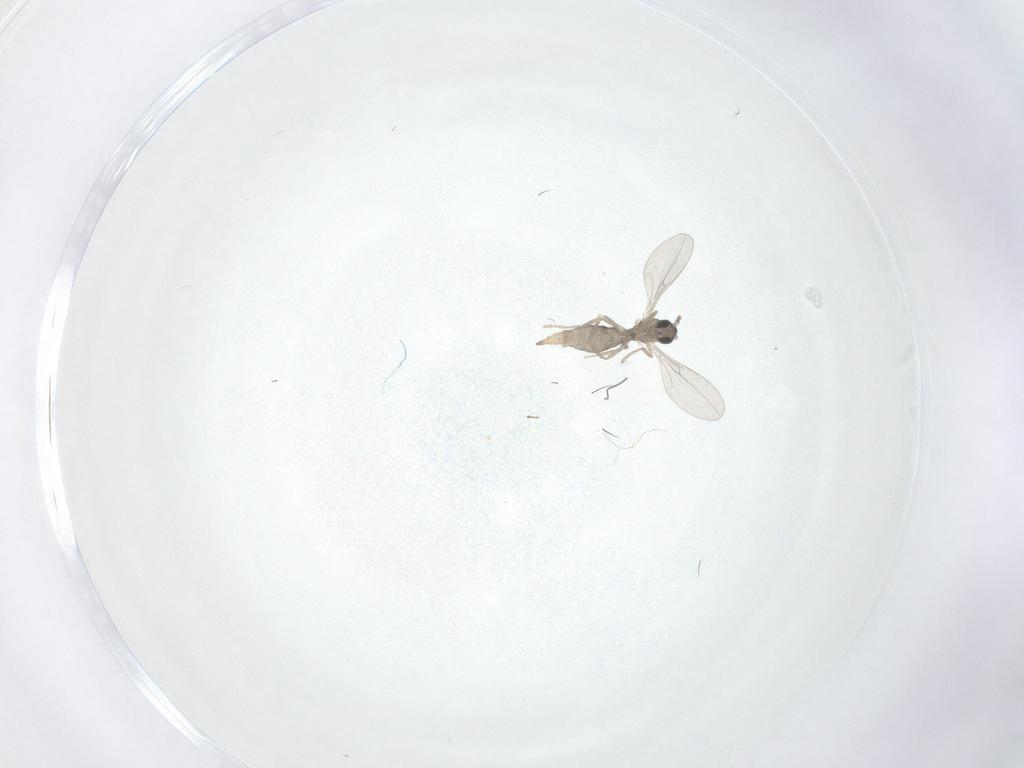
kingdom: Animalia
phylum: Arthropoda
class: Insecta
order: Diptera
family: Cecidomyiidae
